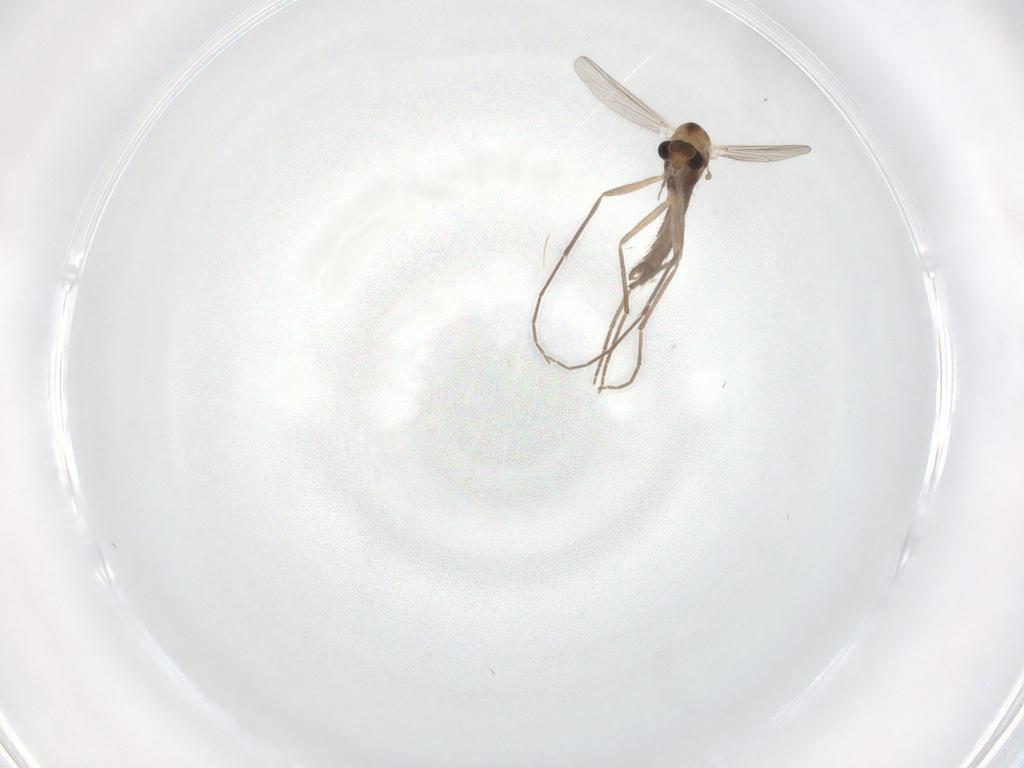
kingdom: Animalia
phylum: Arthropoda
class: Insecta
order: Diptera
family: Chironomidae
